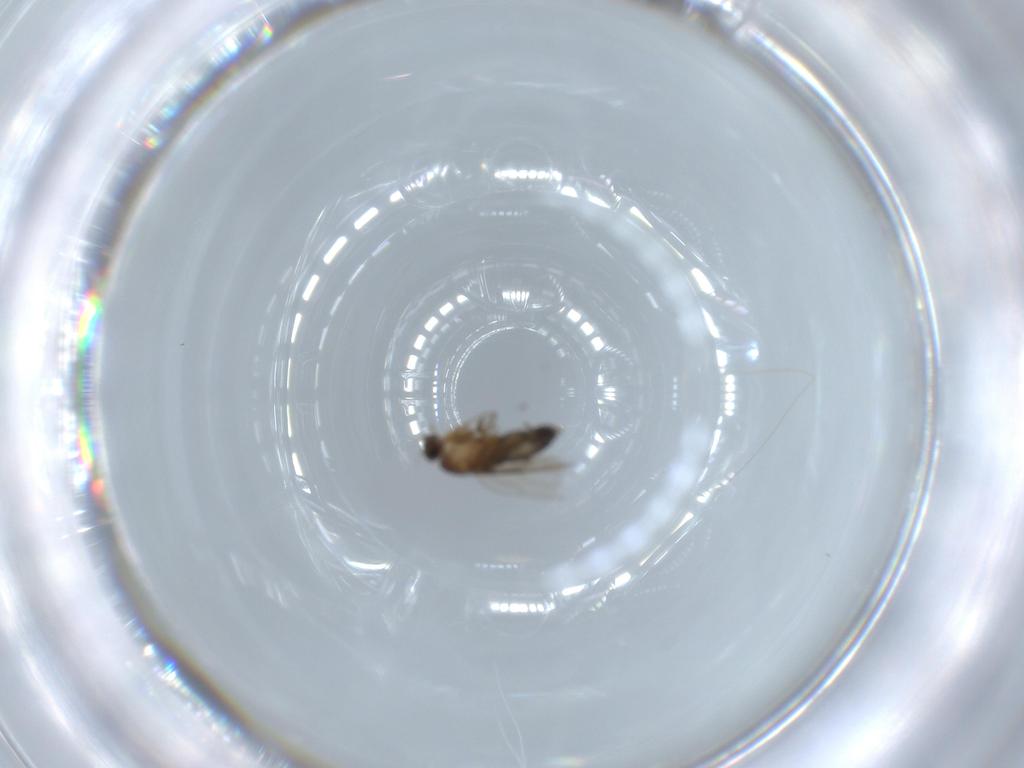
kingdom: Animalia
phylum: Arthropoda
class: Insecta
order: Diptera
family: Phoridae
